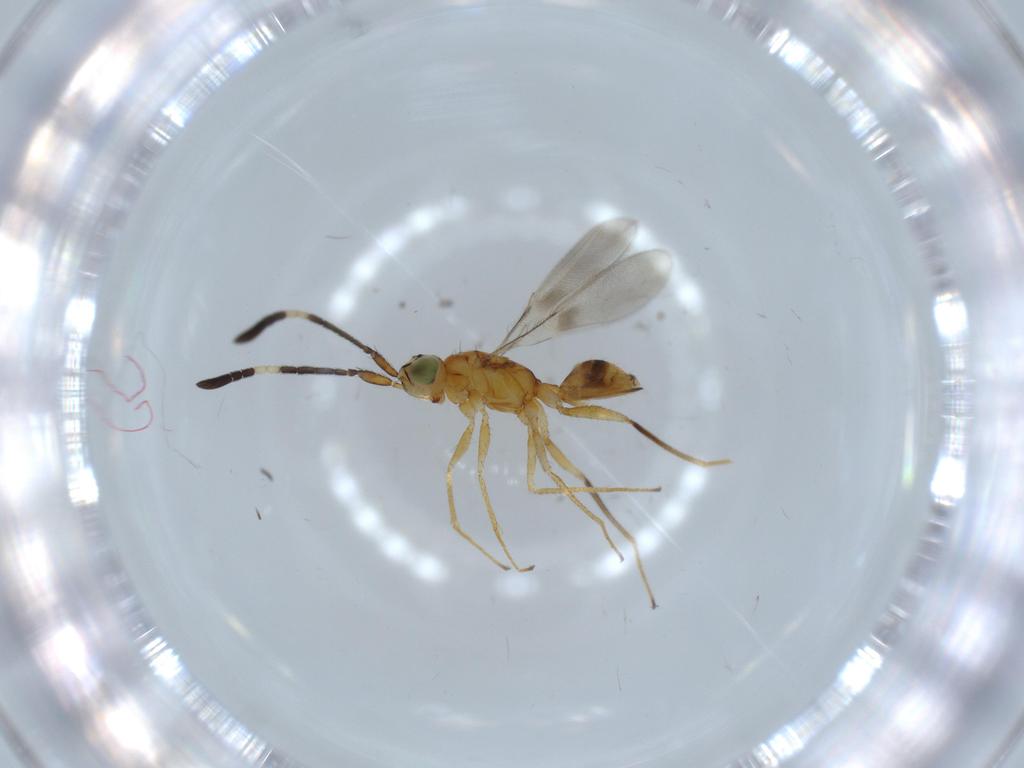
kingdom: Animalia
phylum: Arthropoda
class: Insecta
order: Hymenoptera
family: Mymaridae
